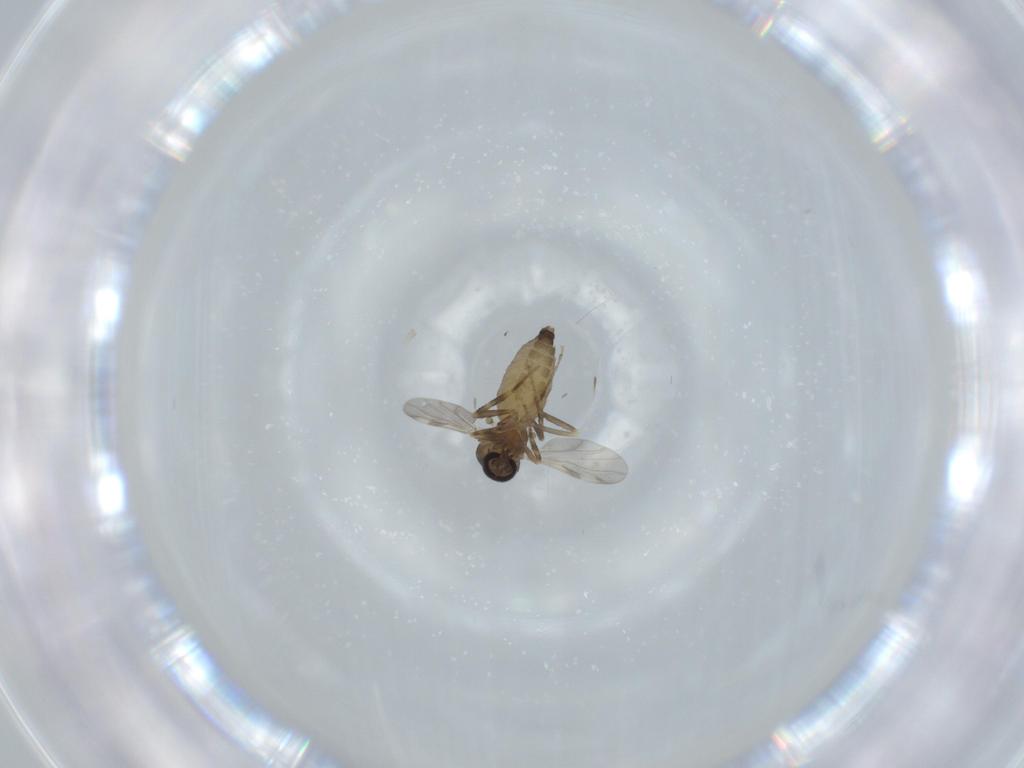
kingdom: Animalia
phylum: Arthropoda
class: Insecta
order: Diptera
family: Ceratopogonidae
